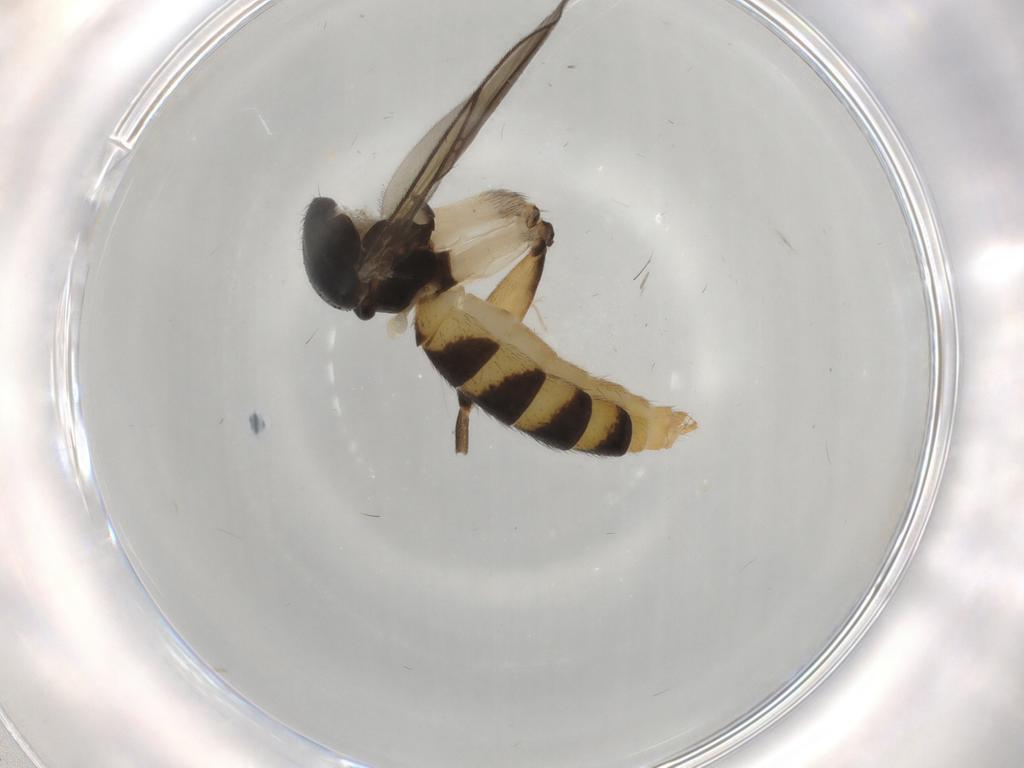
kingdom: Animalia
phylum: Arthropoda
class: Insecta
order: Diptera
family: Mycetophilidae
